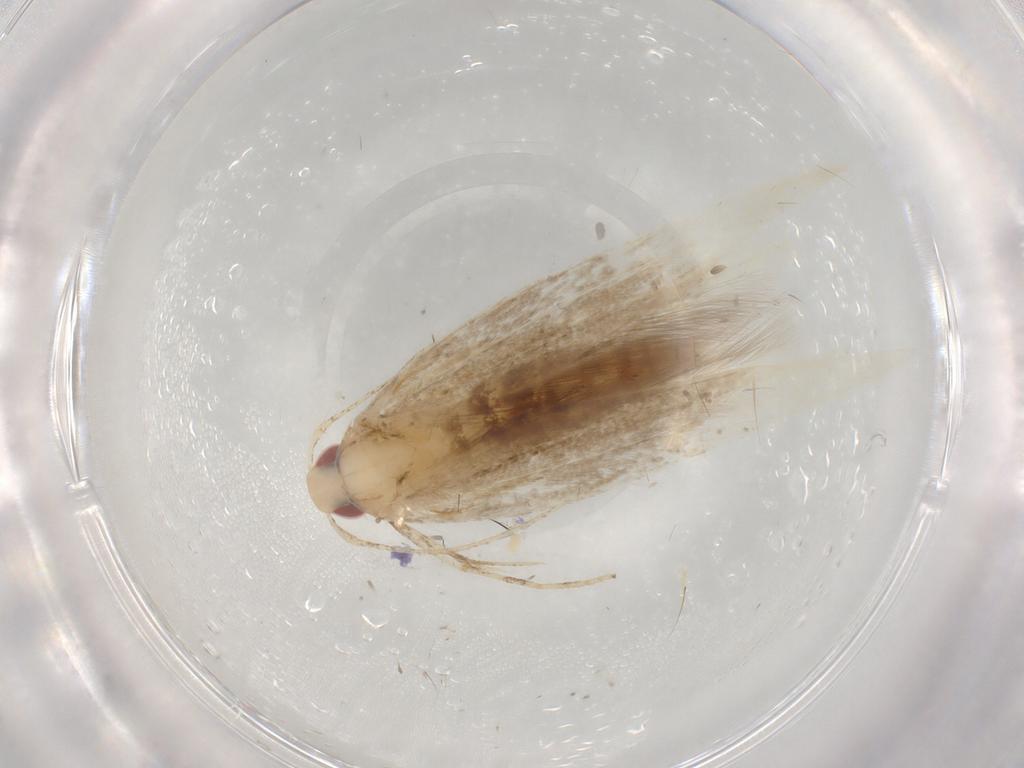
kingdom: Animalia
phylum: Arthropoda
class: Insecta
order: Lepidoptera
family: Cosmopterigidae
